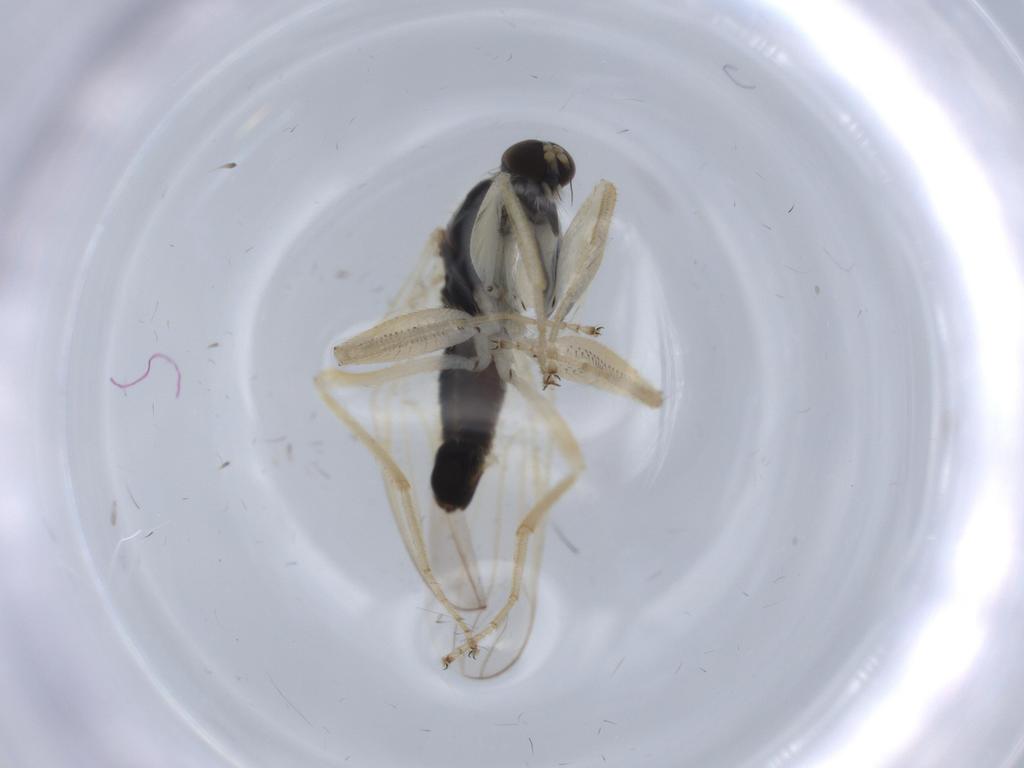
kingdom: Animalia
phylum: Arthropoda
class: Insecta
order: Diptera
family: Hybotidae
